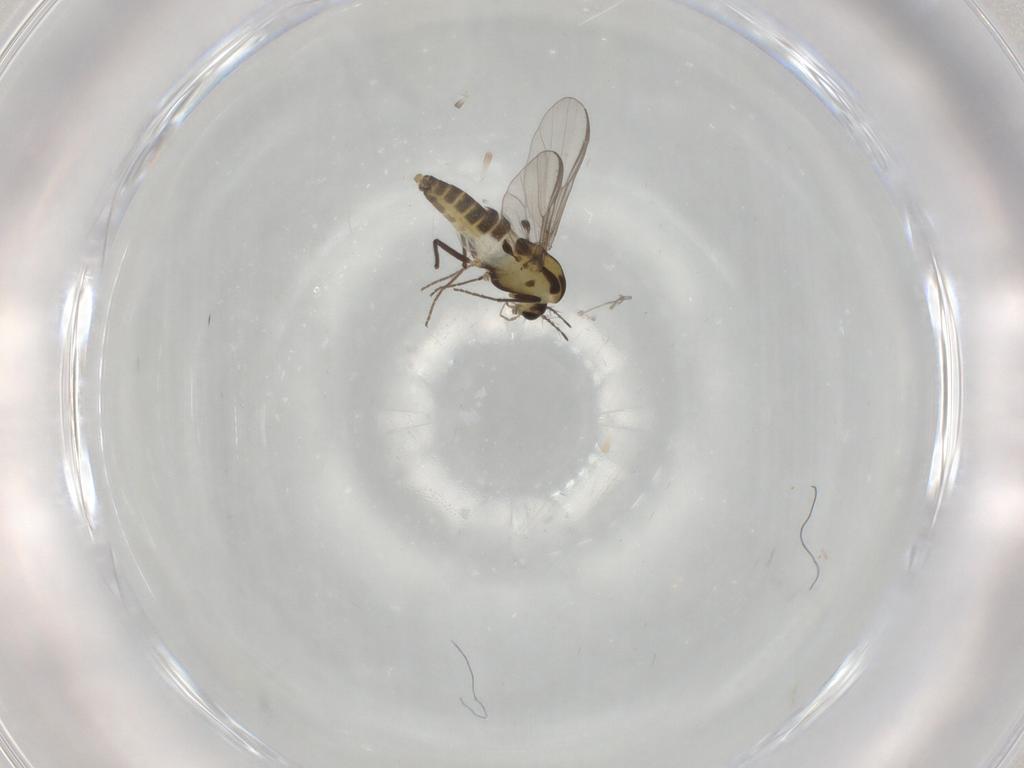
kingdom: Animalia
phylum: Arthropoda
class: Insecta
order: Diptera
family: Chironomidae
